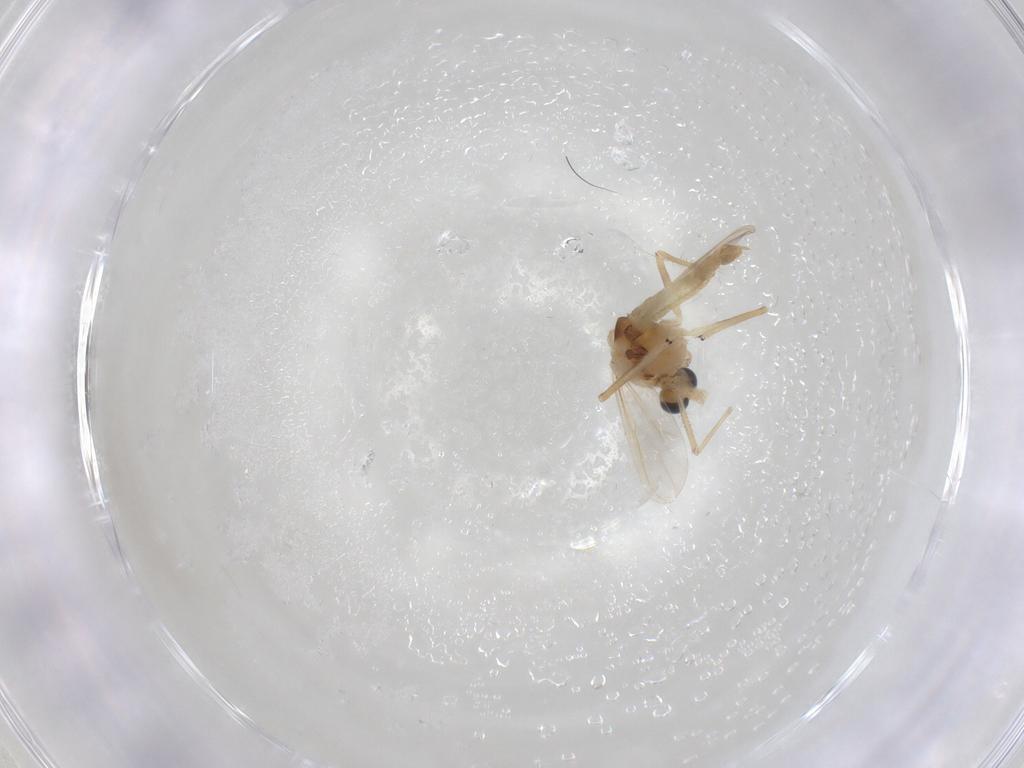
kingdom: Animalia
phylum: Arthropoda
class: Insecta
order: Diptera
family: Chironomidae
